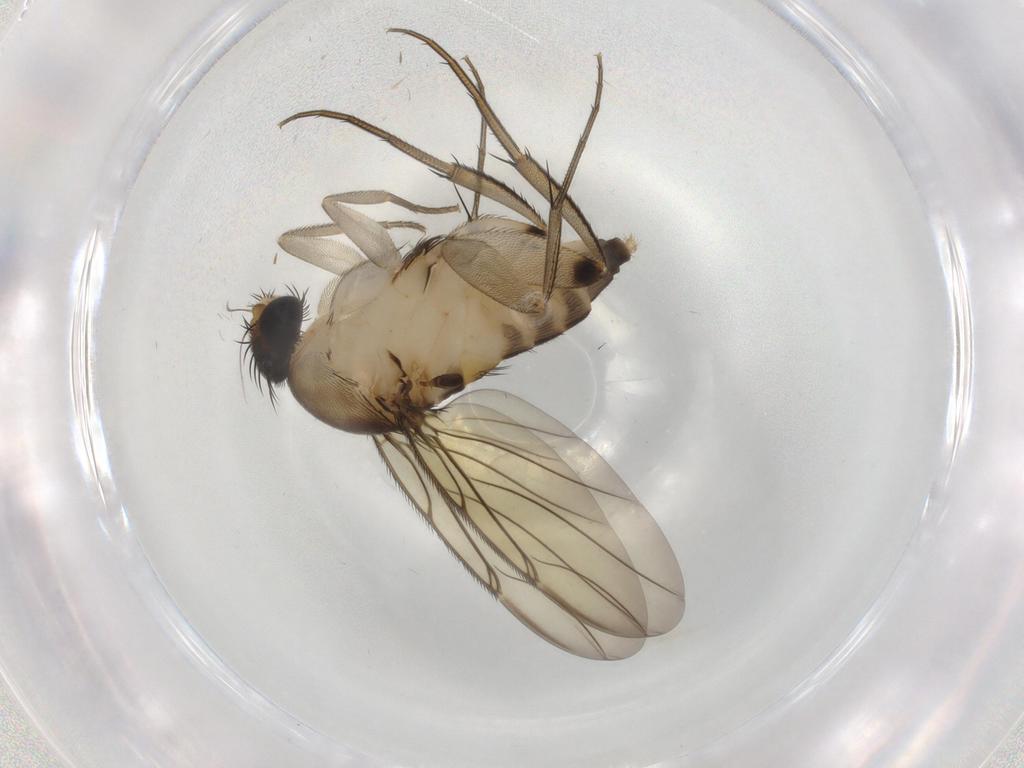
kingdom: Animalia
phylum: Arthropoda
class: Insecta
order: Diptera
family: Phoridae
